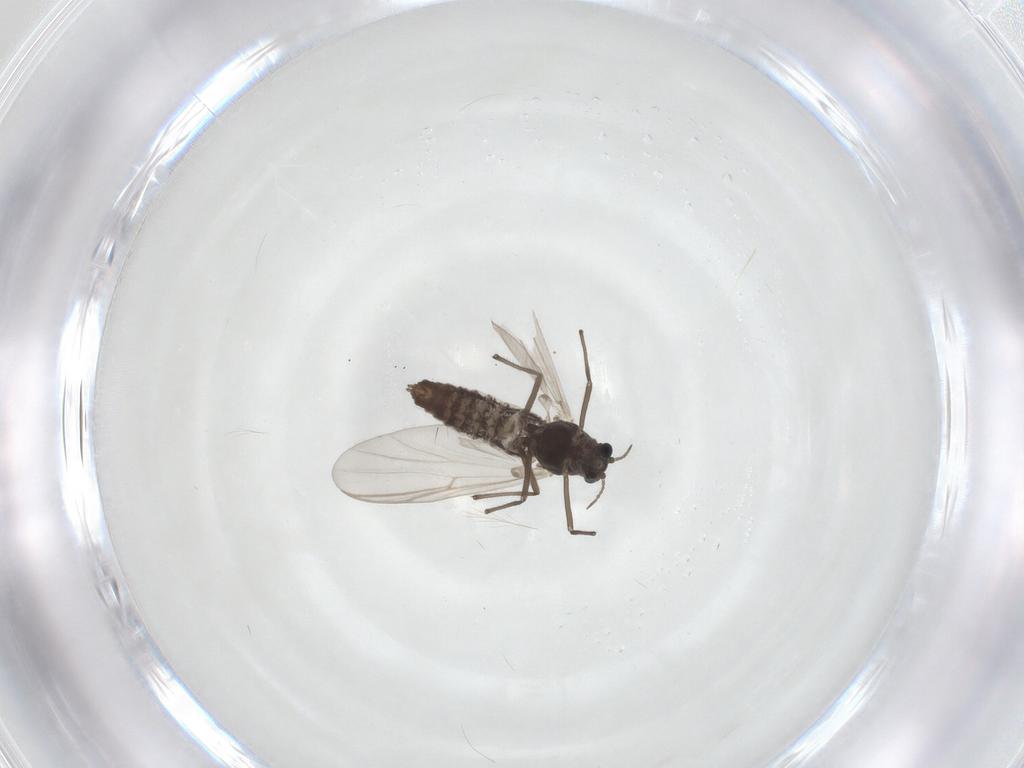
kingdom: Animalia
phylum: Arthropoda
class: Insecta
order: Diptera
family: Chironomidae
